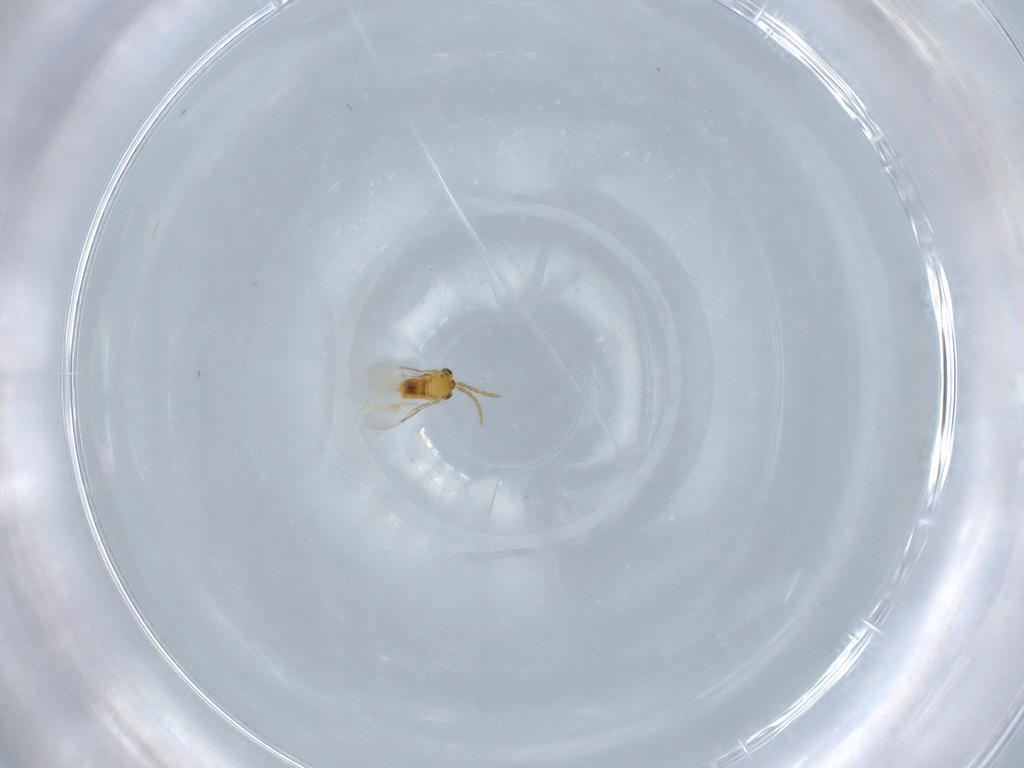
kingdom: Animalia
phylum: Arthropoda
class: Insecta
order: Hymenoptera
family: Aphelinidae
